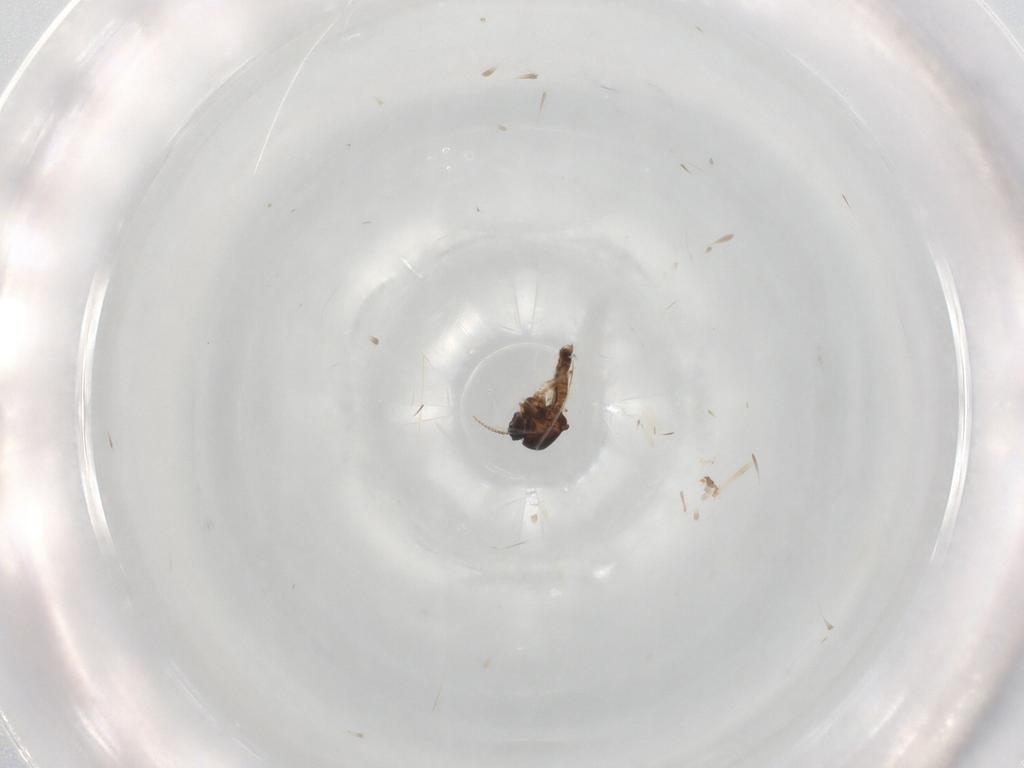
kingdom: Animalia
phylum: Arthropoda
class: Insecta
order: Diptera
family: Ceratopogonidae
